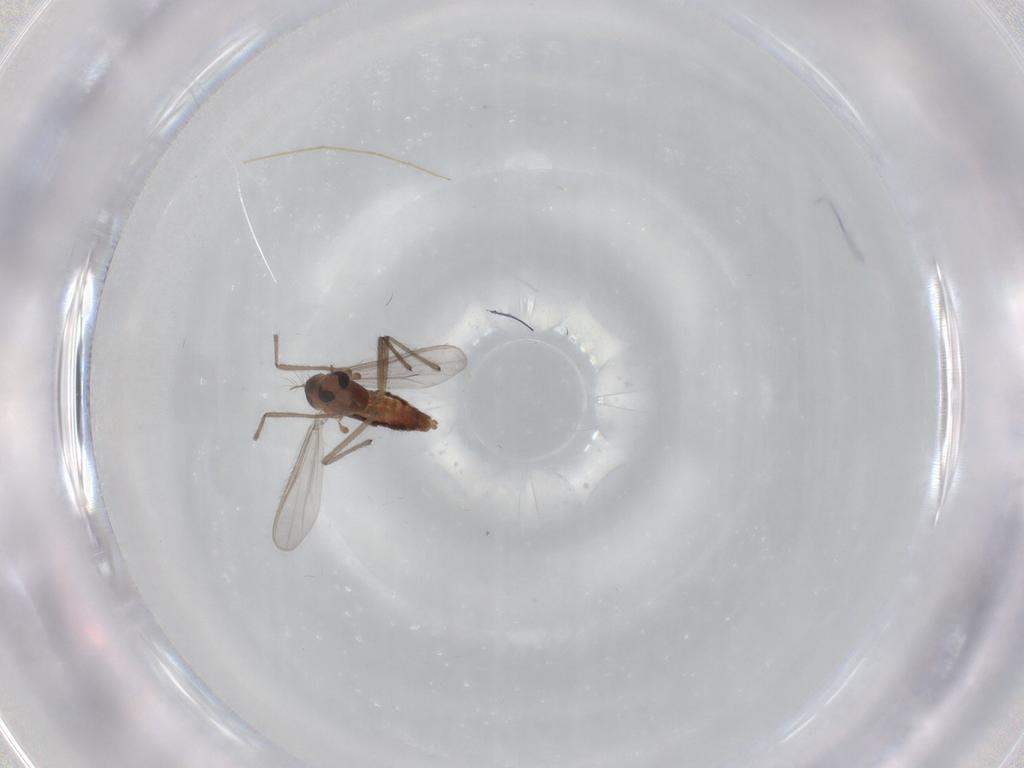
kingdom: Animalia
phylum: Arthropoda
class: Insecta
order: Diptera
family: Chironomidae
